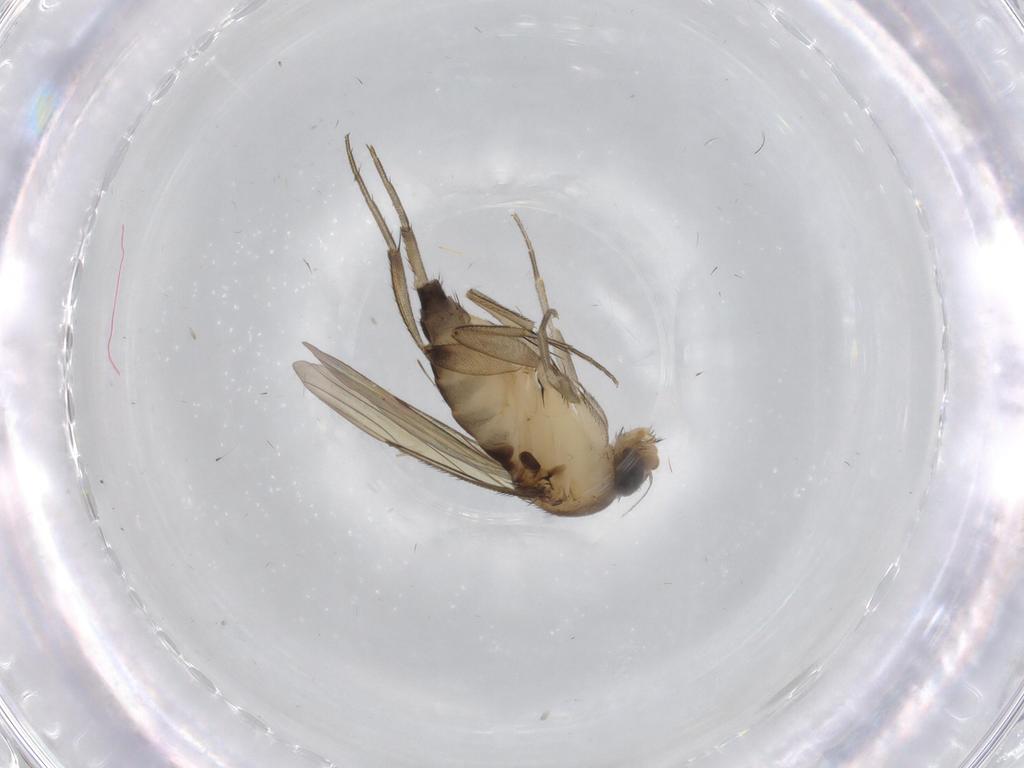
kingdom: Animalia
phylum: Arthropoda
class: Insecta
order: Diptera
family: Phoridae
